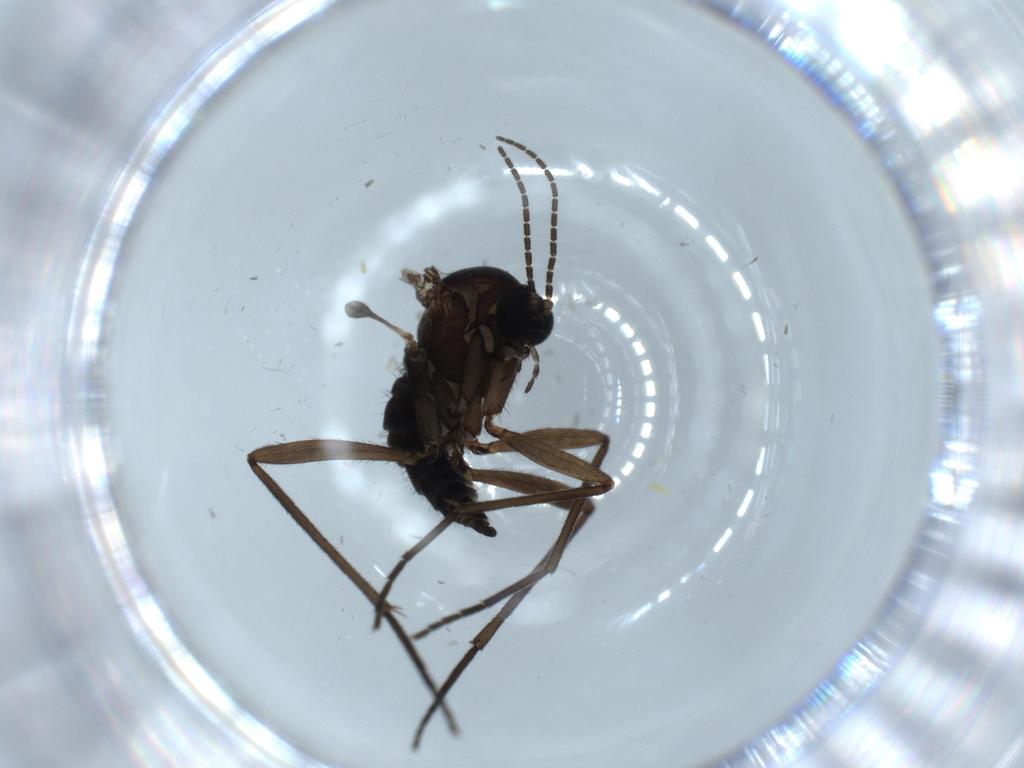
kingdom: Animalia
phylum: Arthropoda
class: Insecta
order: Diptera
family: Sciaridae
